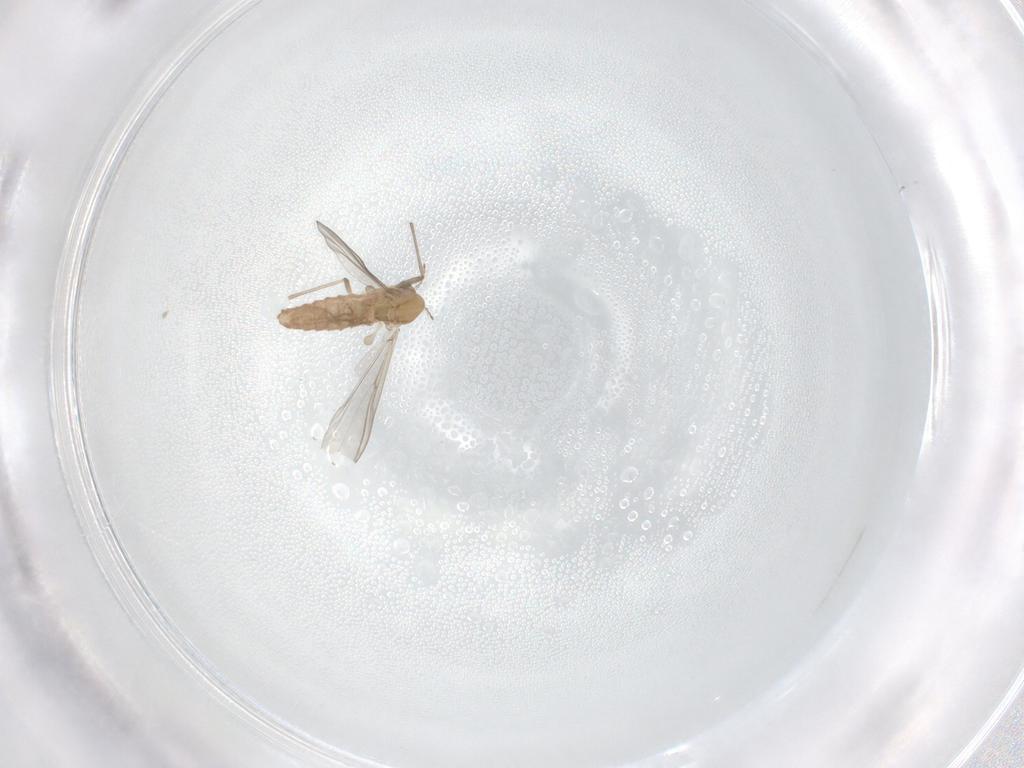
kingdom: Animalia
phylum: Arthropoda
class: Insecta
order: Diptera
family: Chironomidae
